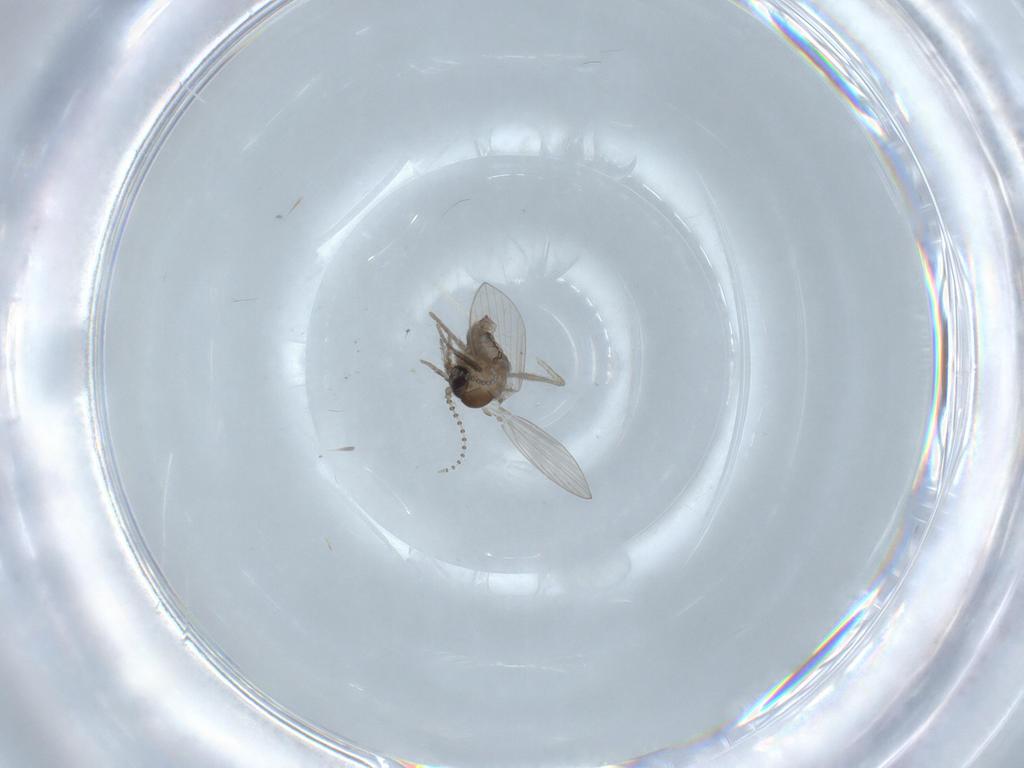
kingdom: Animalia
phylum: Arthropoda
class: Insecta
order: Diptera
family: Psychodidae
